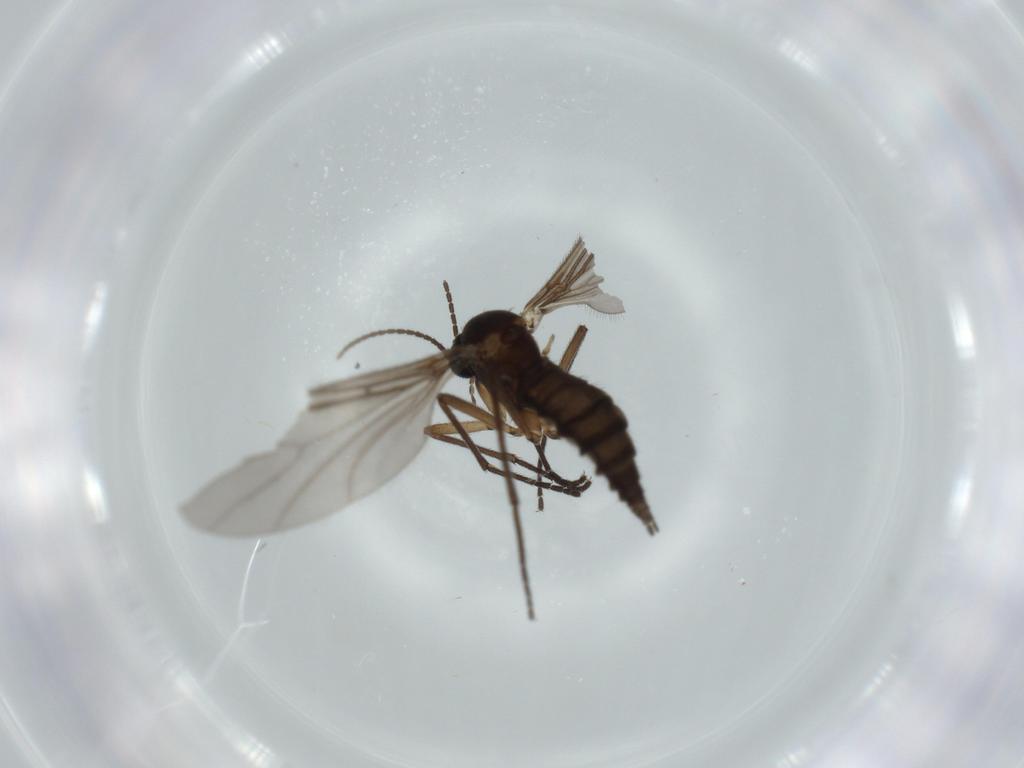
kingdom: Animalia
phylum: Arthropoda
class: Insecta
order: Diptera
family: Sciaridae
